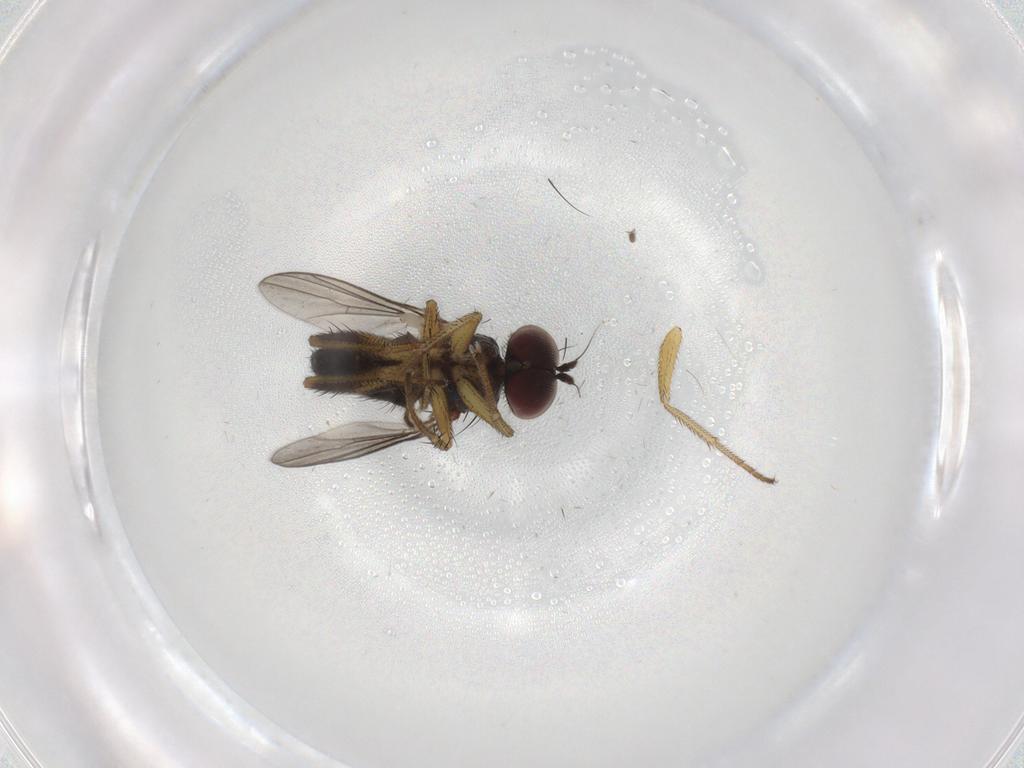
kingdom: Animalia
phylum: Arthropoda
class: Insecta
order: Diptera
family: Dolichopodidae
